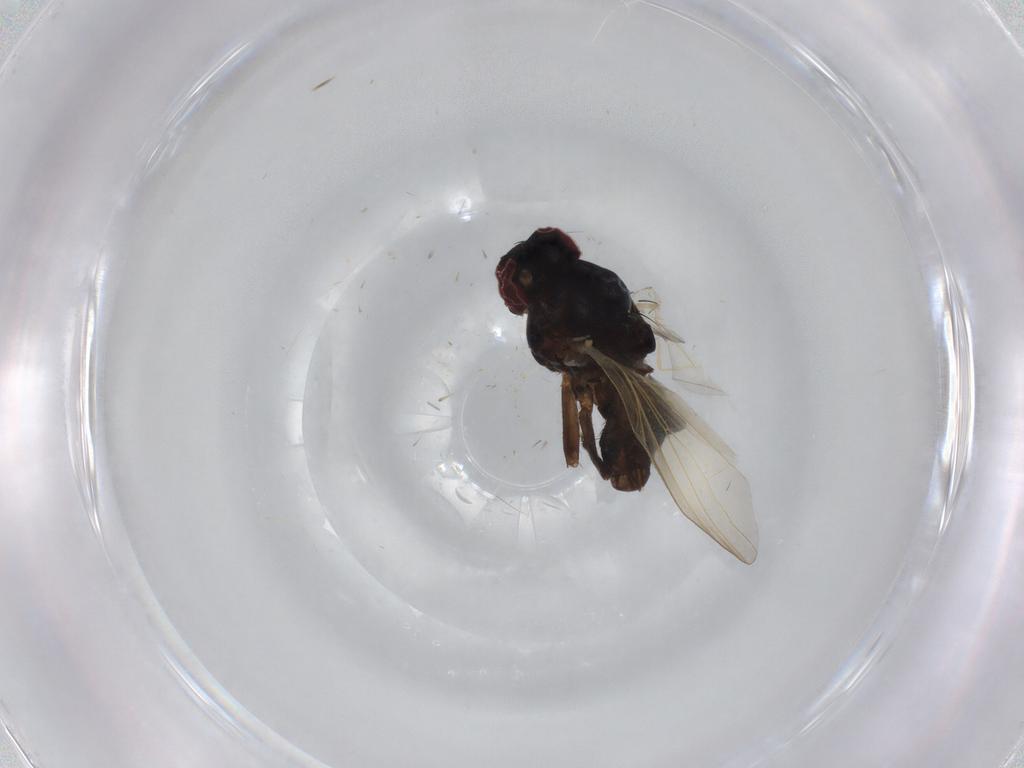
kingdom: Animalia
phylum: Arthropoda
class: Insecta
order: Diptera
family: Lonchaeidae
